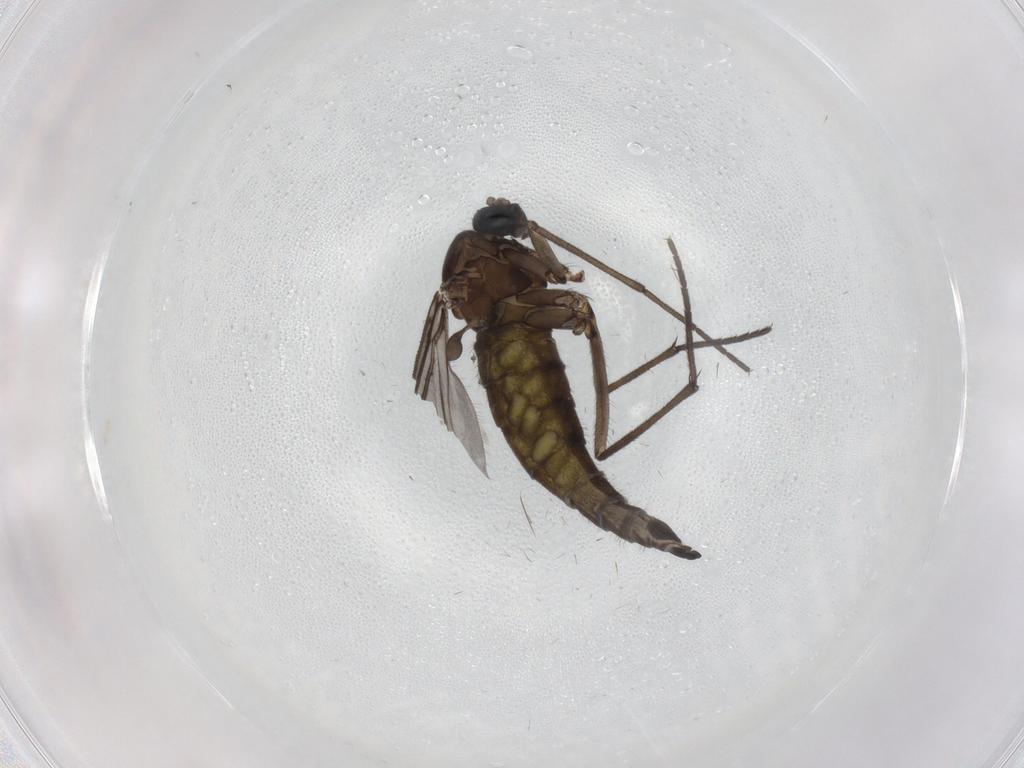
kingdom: Animalia
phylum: Arthropoda
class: Insecta
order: Diptera
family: Sciaridae
